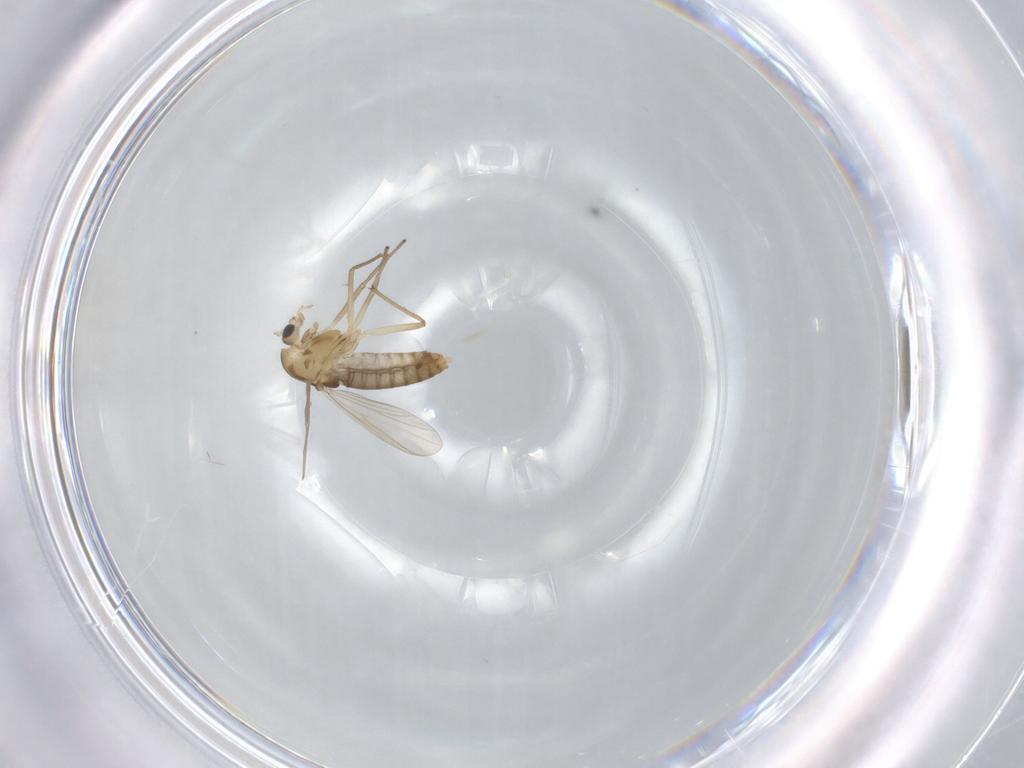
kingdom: Animalia
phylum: Arthropoda
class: Insecta
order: Diptera
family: Chironomidae
